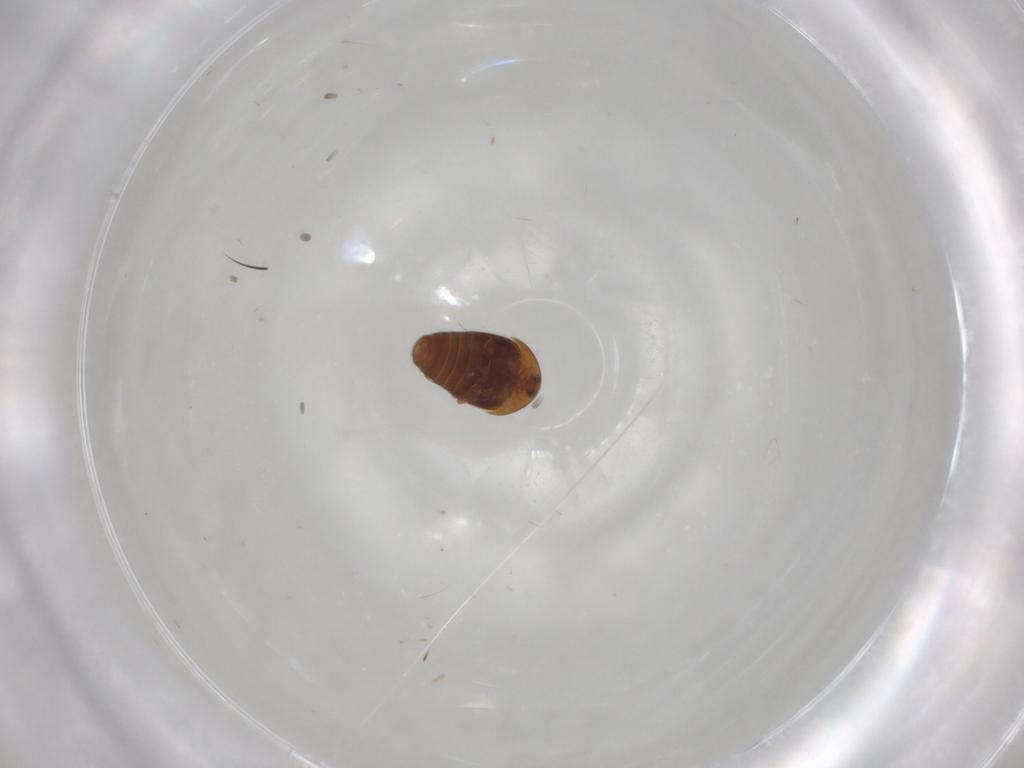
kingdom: Animalia
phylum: Arthropoda
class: Insecta
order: Coleoptera
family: Corylophidae
